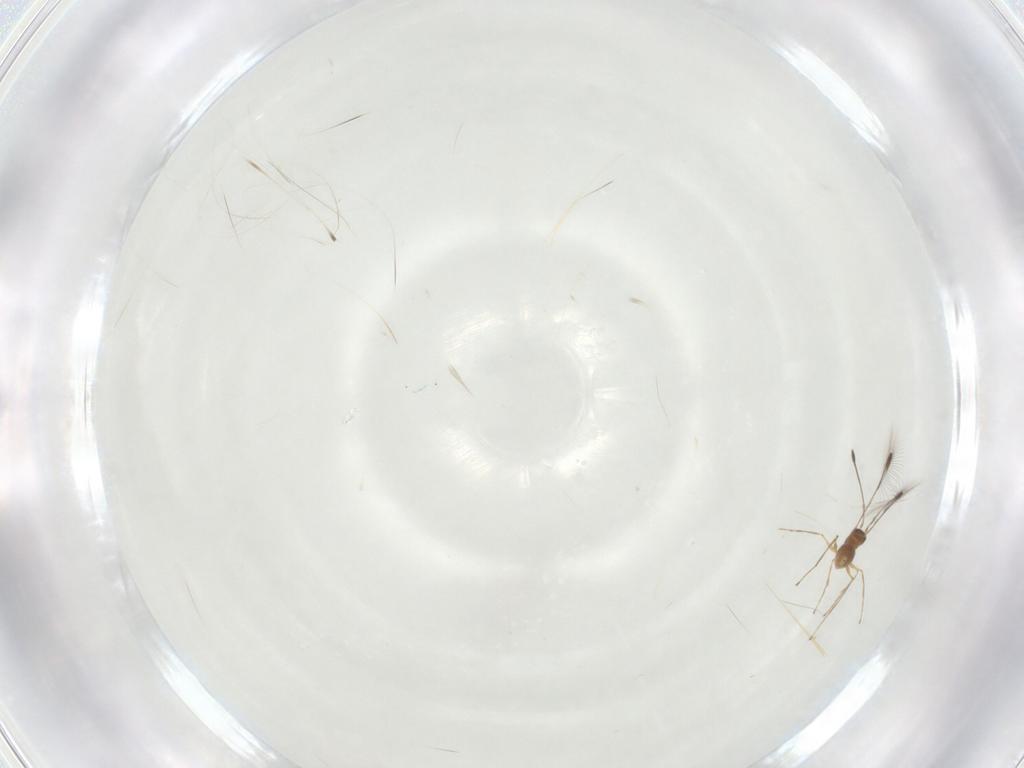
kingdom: Animalia
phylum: Arthropoda
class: Insecta
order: Hymenoptera
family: Mymaridae
